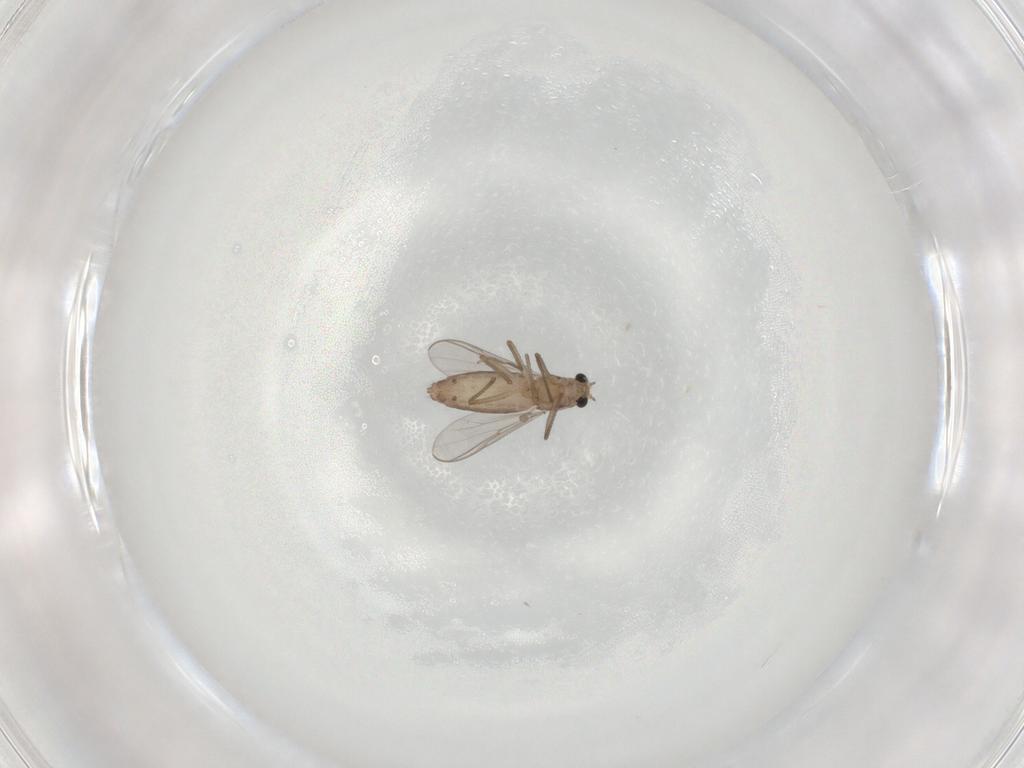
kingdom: Animalia
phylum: Arthropoda
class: Insecta
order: Diptera
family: Chironomidae
